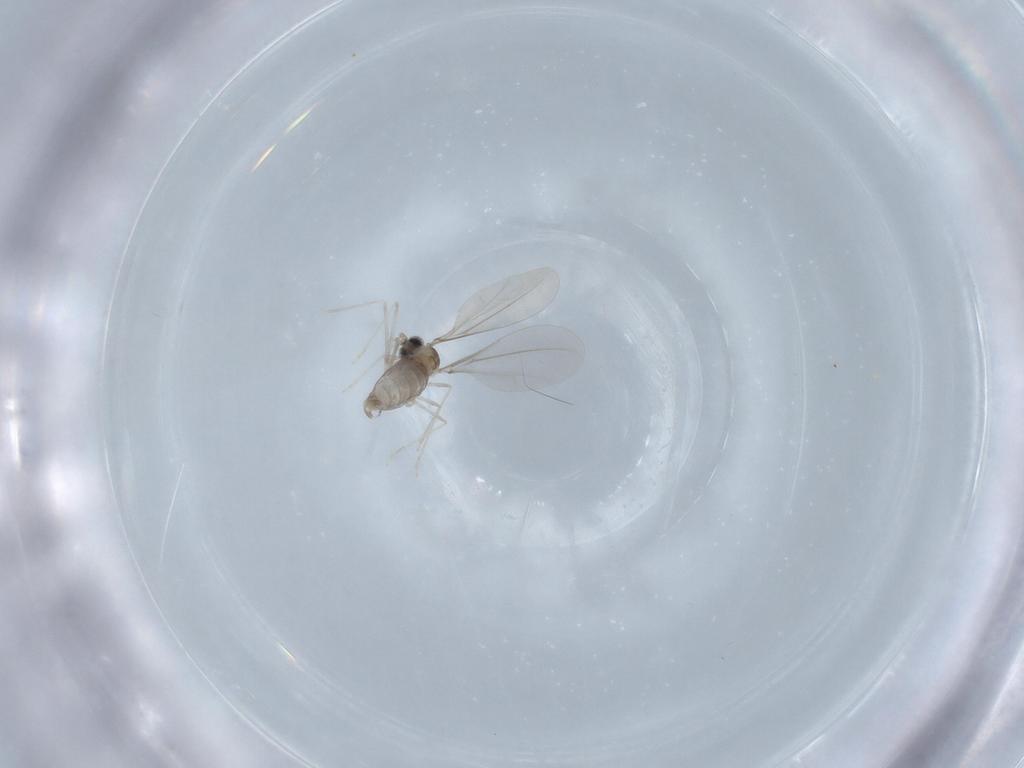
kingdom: Animalia
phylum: Arthropoda
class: Insecta
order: Diptera
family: Cecidomyiidae
